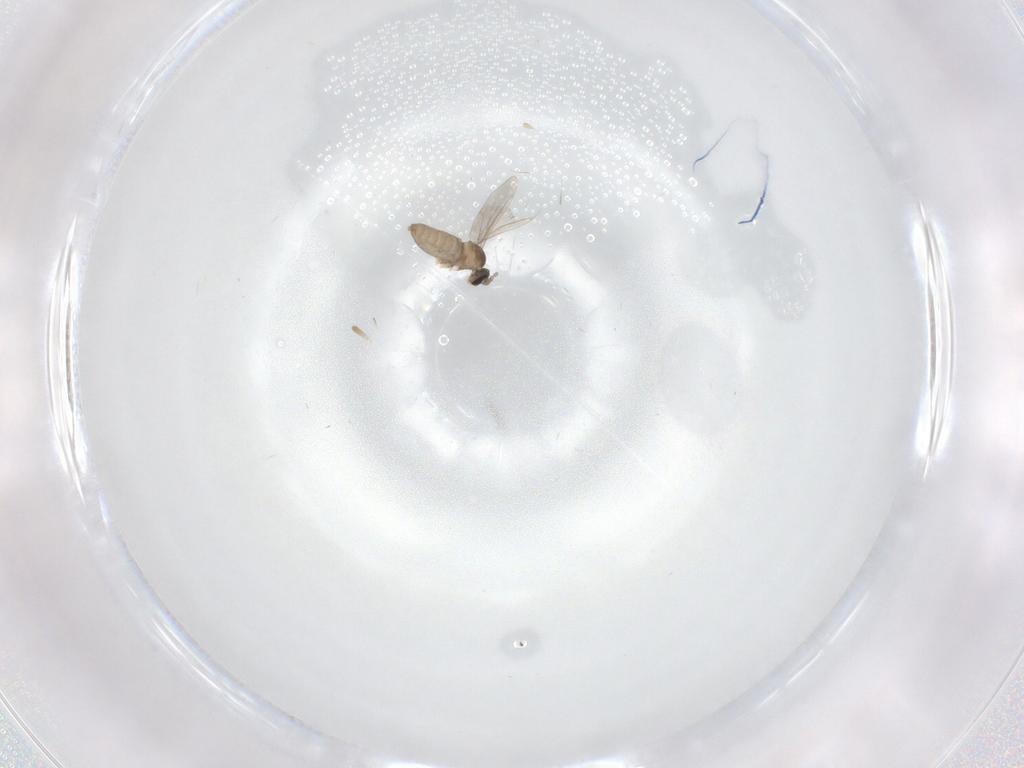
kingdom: Animalia
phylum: Arthropoda
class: Insecta
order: Diptera
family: Cecidomyiidae
